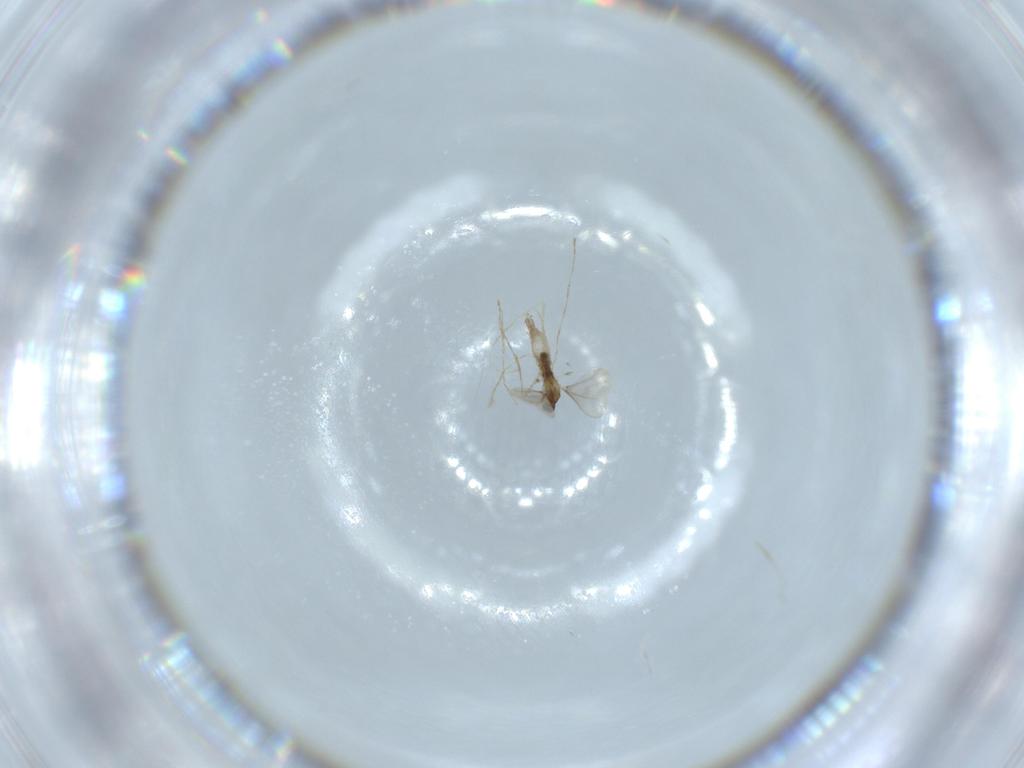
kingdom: Animalia
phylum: Arthropoda
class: Insecta
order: Diptera
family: Cecidomyiidae
